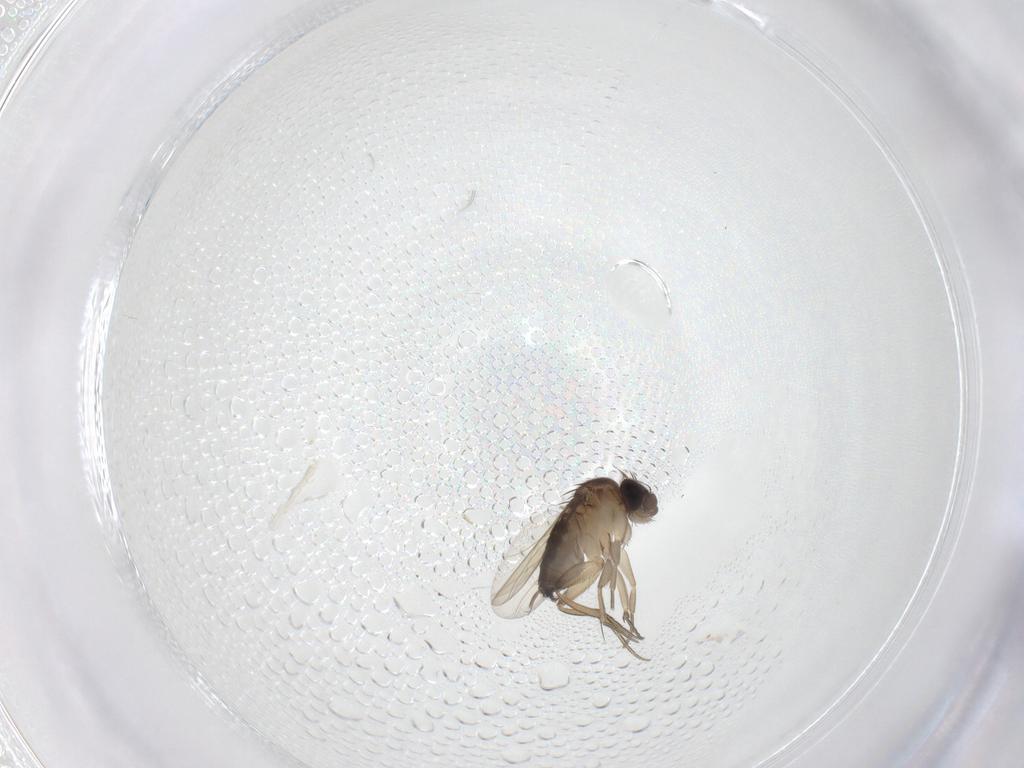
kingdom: Animalia
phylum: Arthropoda
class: Insecta
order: Diptera
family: Phoridae
